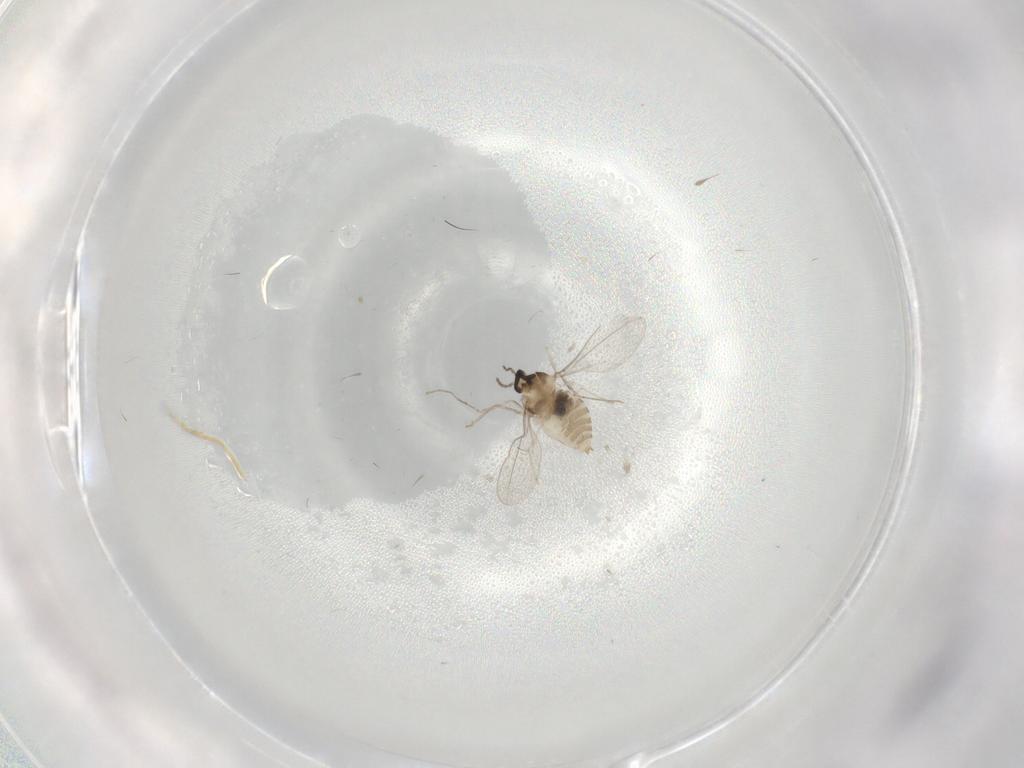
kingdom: Animalia
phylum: Arthropoda
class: Insecta
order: Diptera
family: Cecidomyiidae
